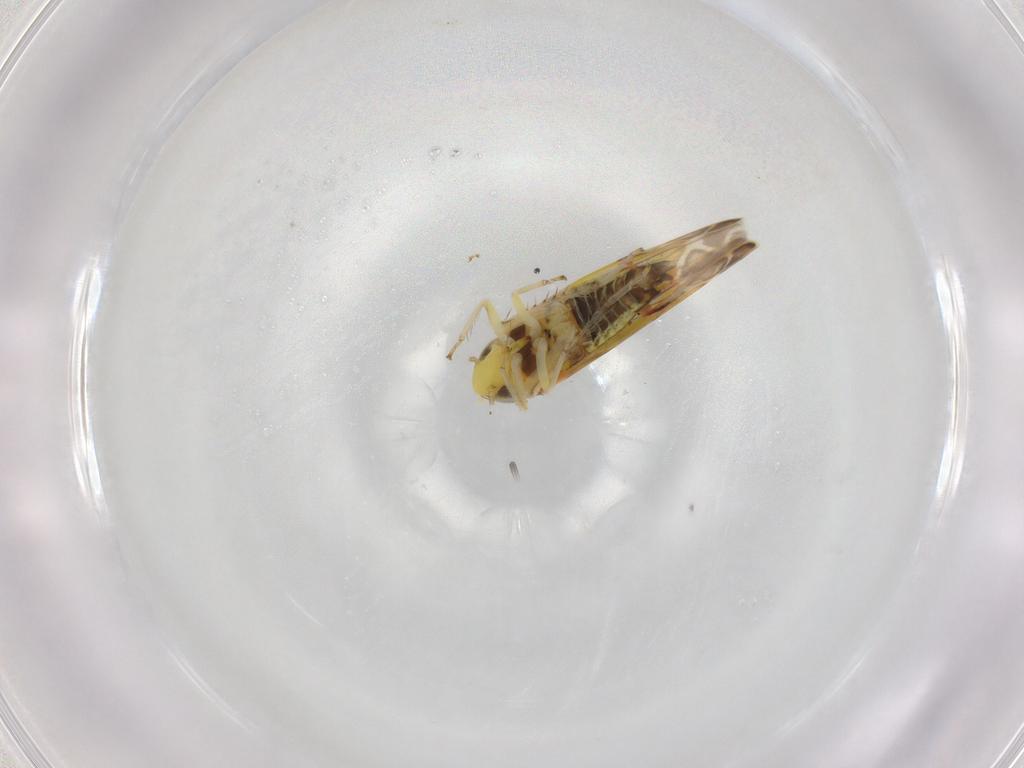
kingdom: Animalia
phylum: Arthropoda
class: Insecta
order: Hemiptera
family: Cicadellidae
